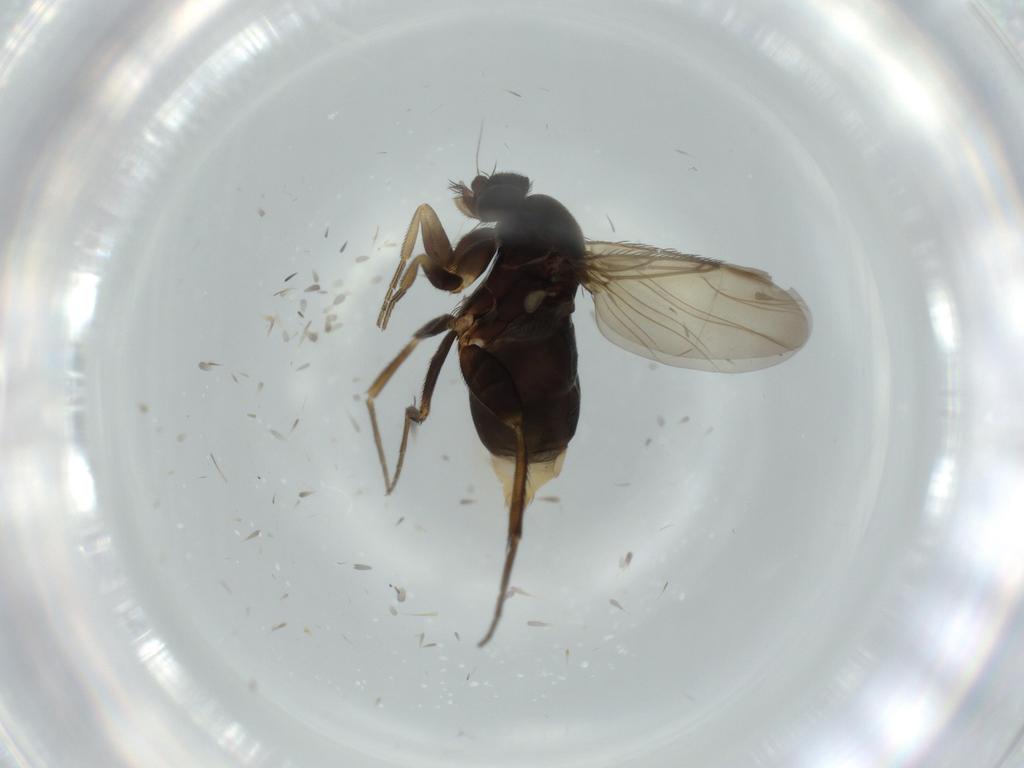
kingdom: Animalia
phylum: Arthropoda
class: Insecta
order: Diptera
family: Phoridae
